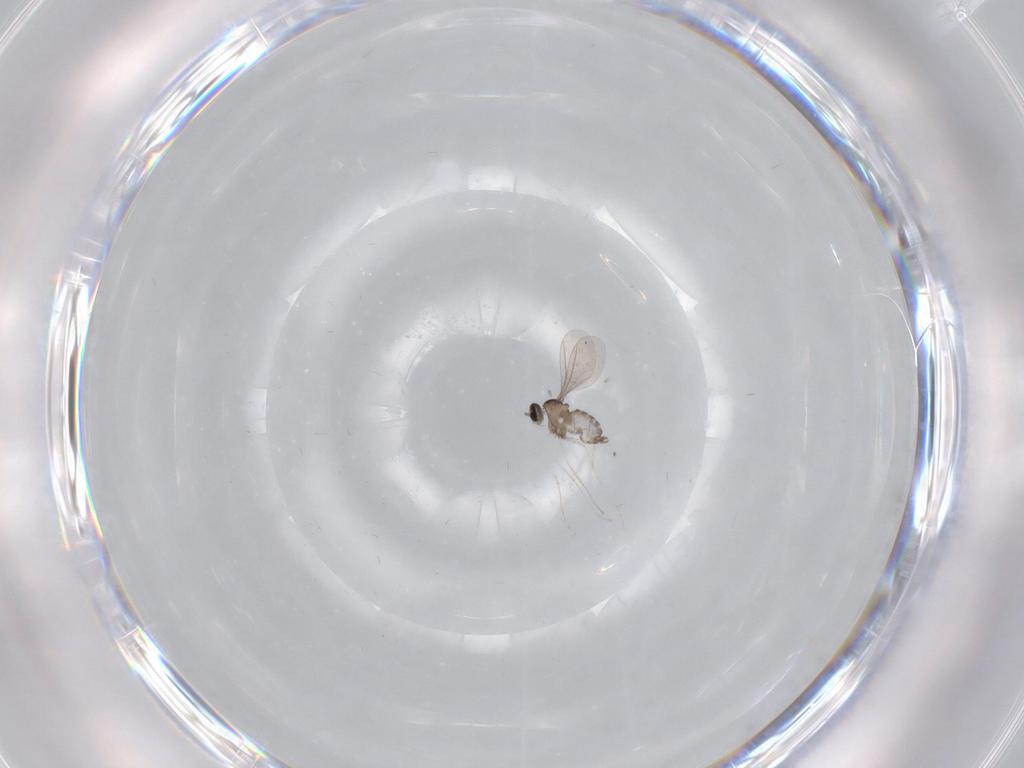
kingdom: Animalia
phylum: Arthropoda
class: Insecta
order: Diptera
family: Cecidomyiidae
